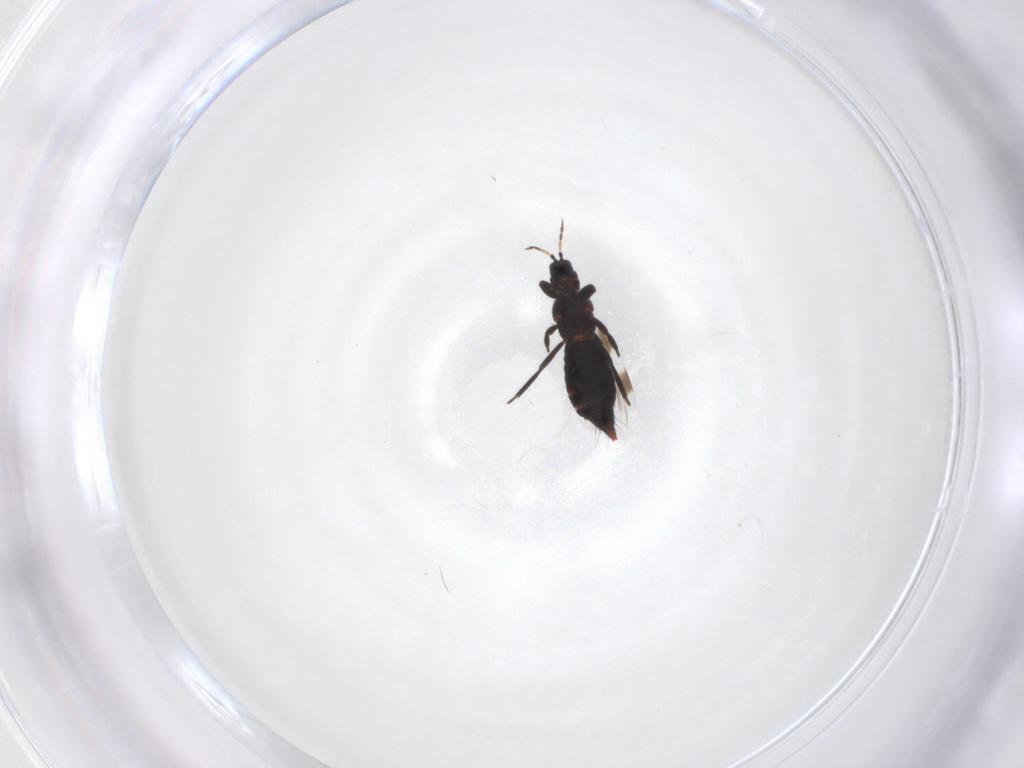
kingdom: Animalia
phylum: Arthropoda
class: Insecta
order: Thysanoptera
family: Aeolothripidae
